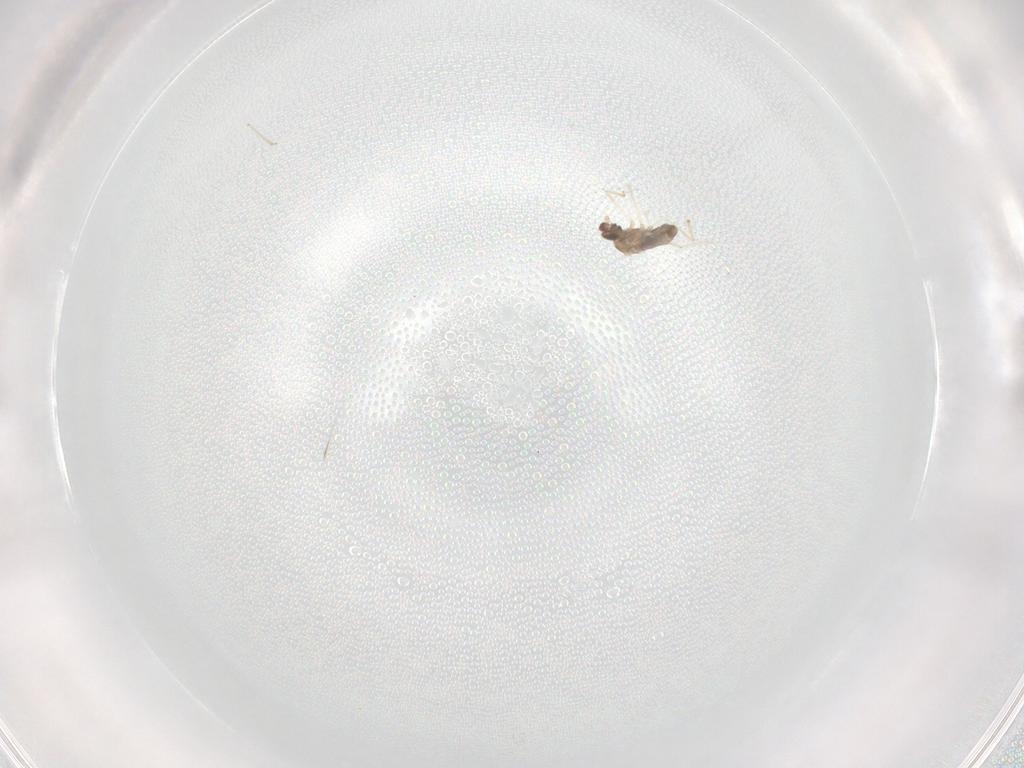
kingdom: Animalia
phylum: Arthropoda
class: Insecta
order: Diptera
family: Cecidomyiidae
